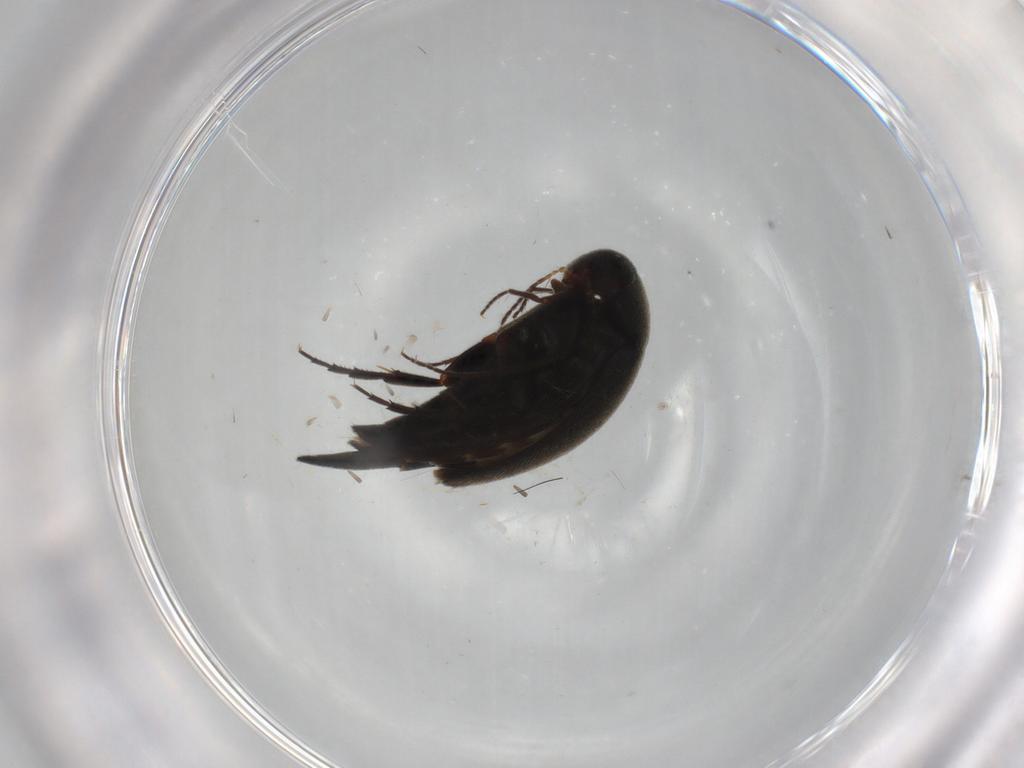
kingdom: Animalia
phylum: Arthropoda
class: Insecta
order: Coleoptera
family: Mordellidae
